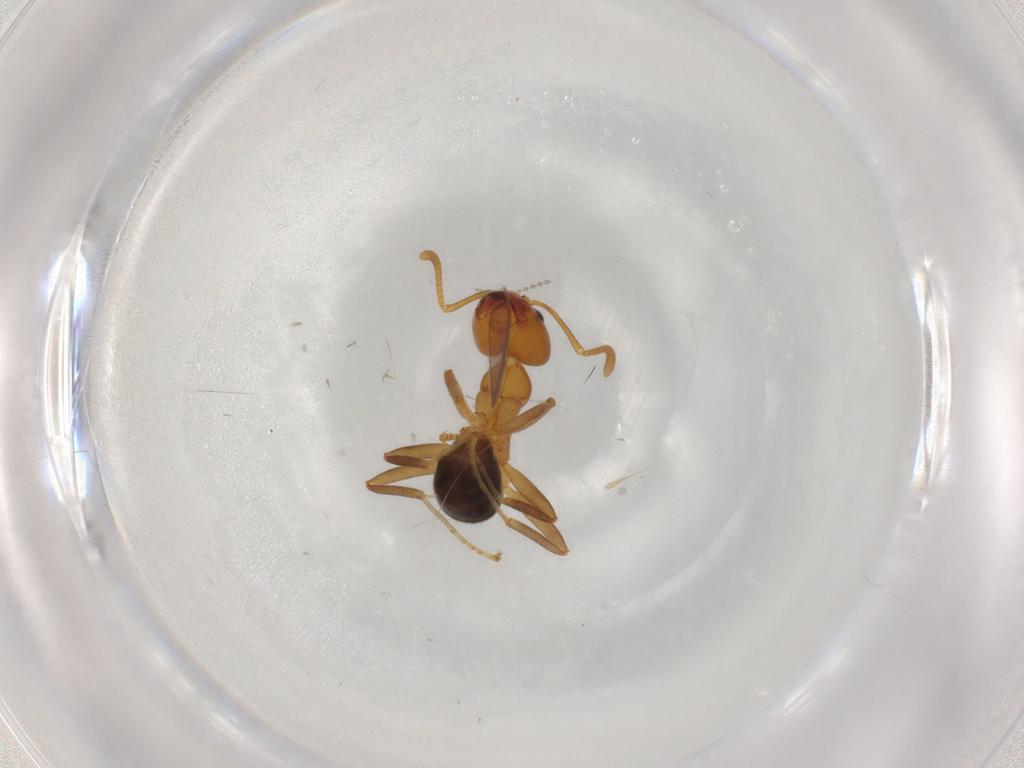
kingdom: Animalia
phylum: Arthropoda
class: Insecta
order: Hymenoptera
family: Formicidae
